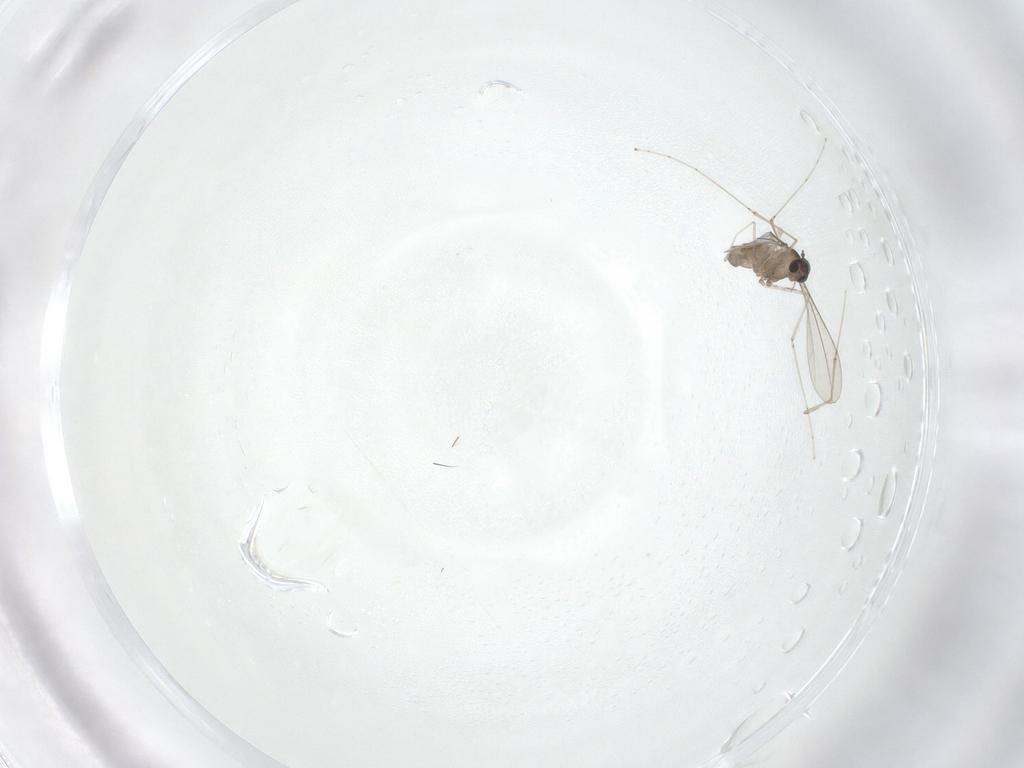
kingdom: Animalia
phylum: Arthropoda
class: Insecta
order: Diptera
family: Cecidomyiidae
